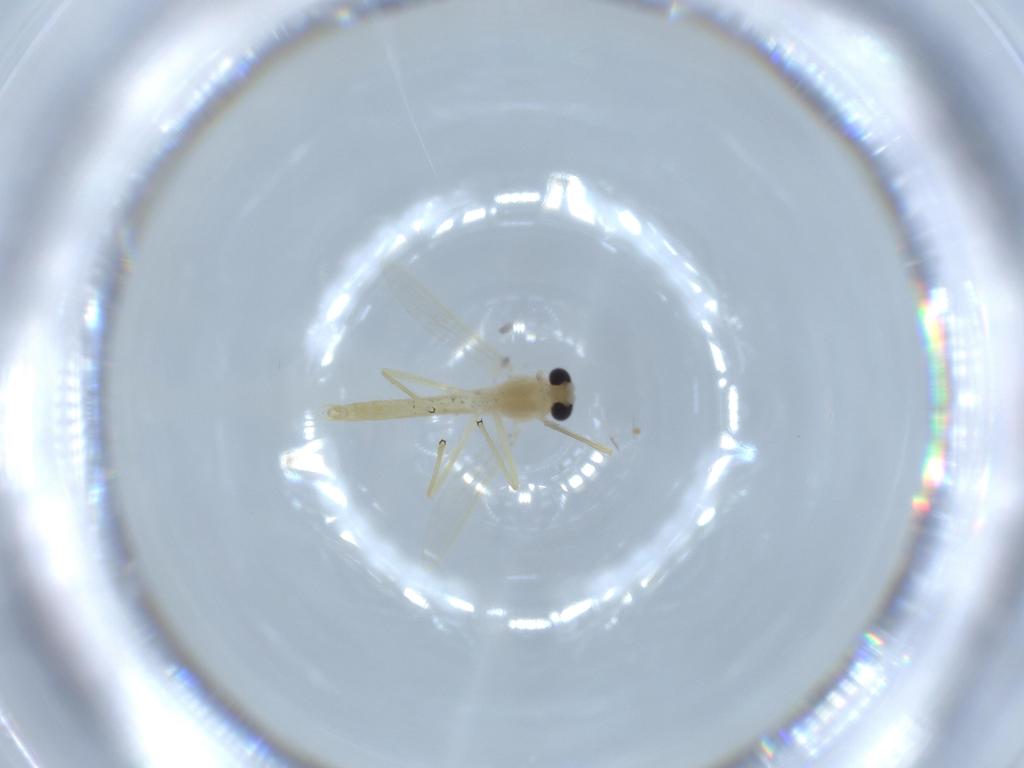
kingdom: Animalia
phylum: Arthropoda
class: Insecta
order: Diptera
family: Chironomidae
